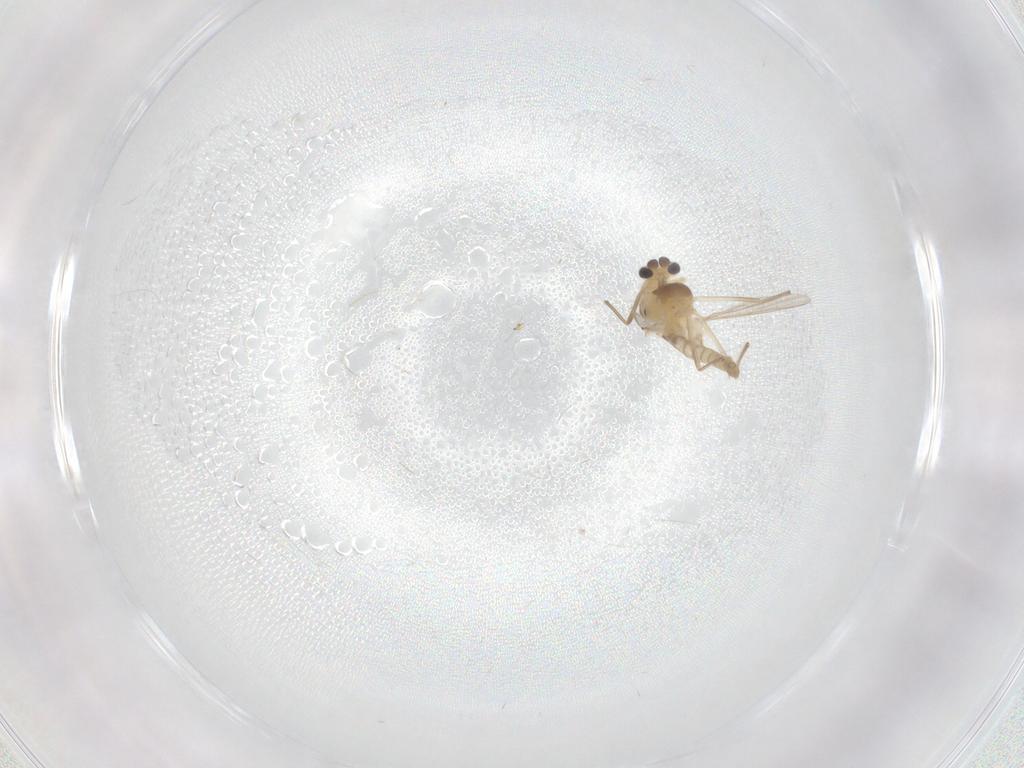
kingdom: Animalia
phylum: Arthropoda
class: Insecta
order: Diptera
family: Chironomidae
